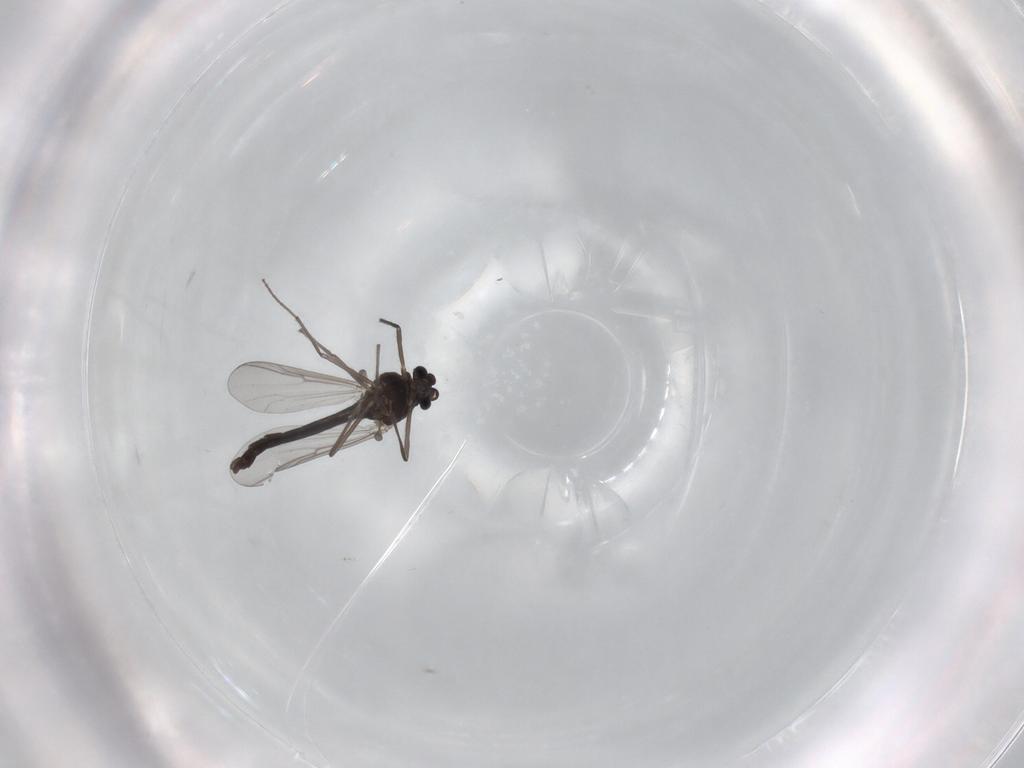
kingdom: Animalia
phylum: Arthropoda
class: Insecta
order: Diptera
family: Chironomidae
